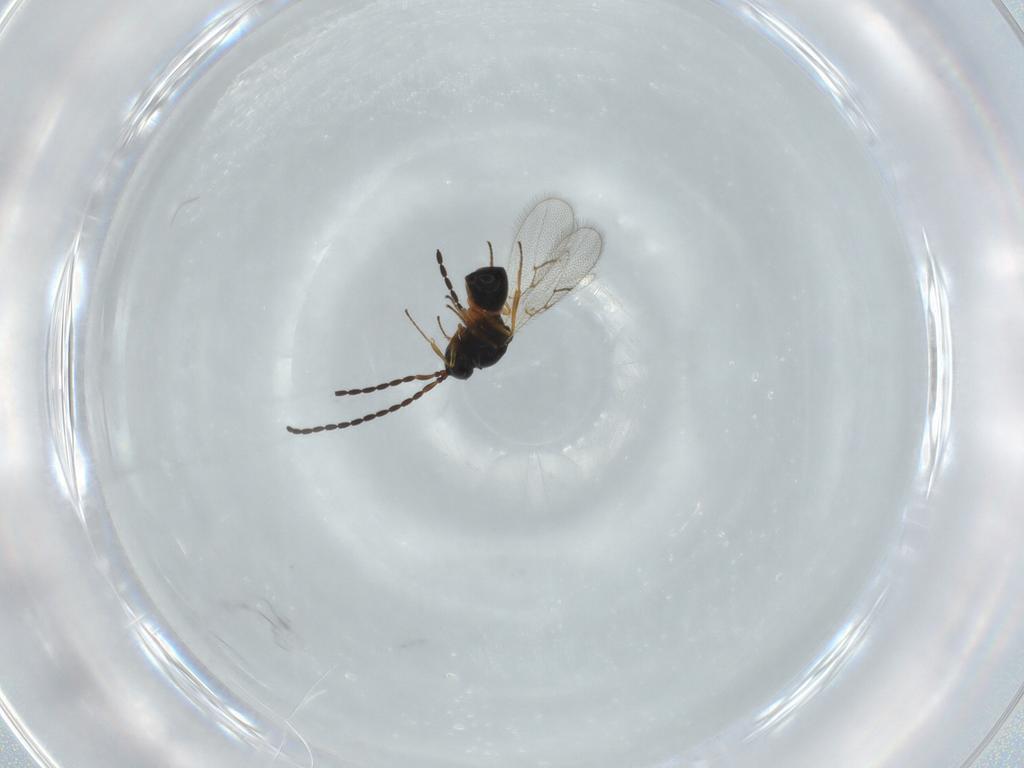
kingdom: Animalia
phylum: Arthropoda
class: Insecta
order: Hymenoptera
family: Figitidae
